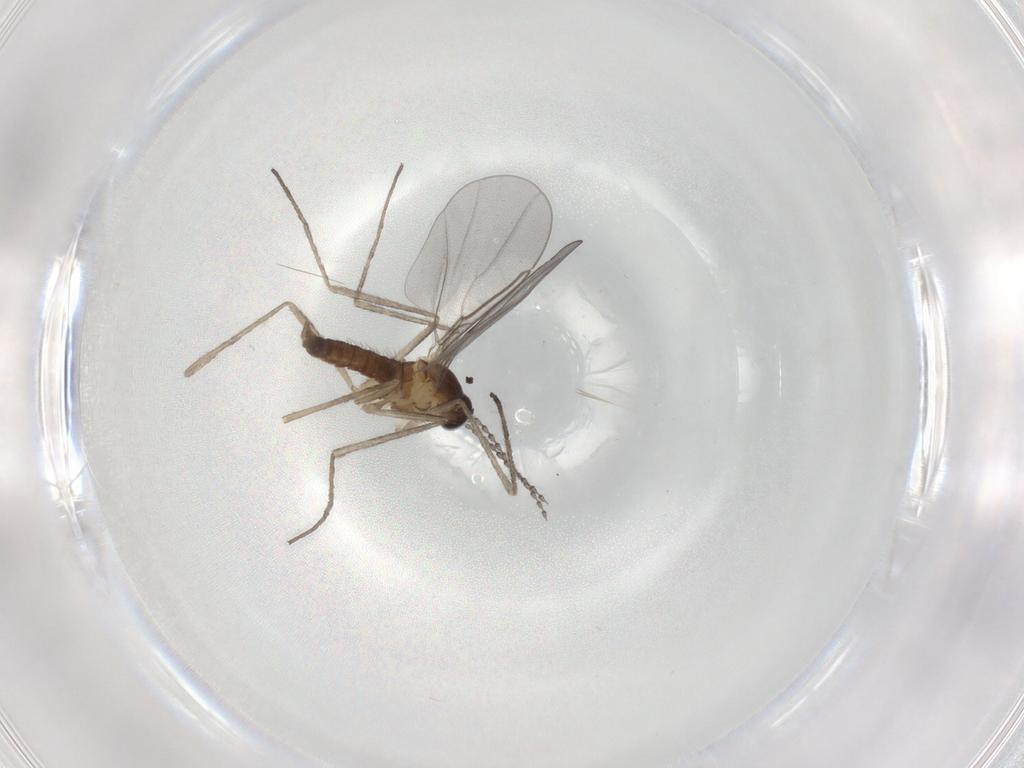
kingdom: Animalia
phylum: Arthropoda
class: Insecta
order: Diptera
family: Cecidomyiidae
